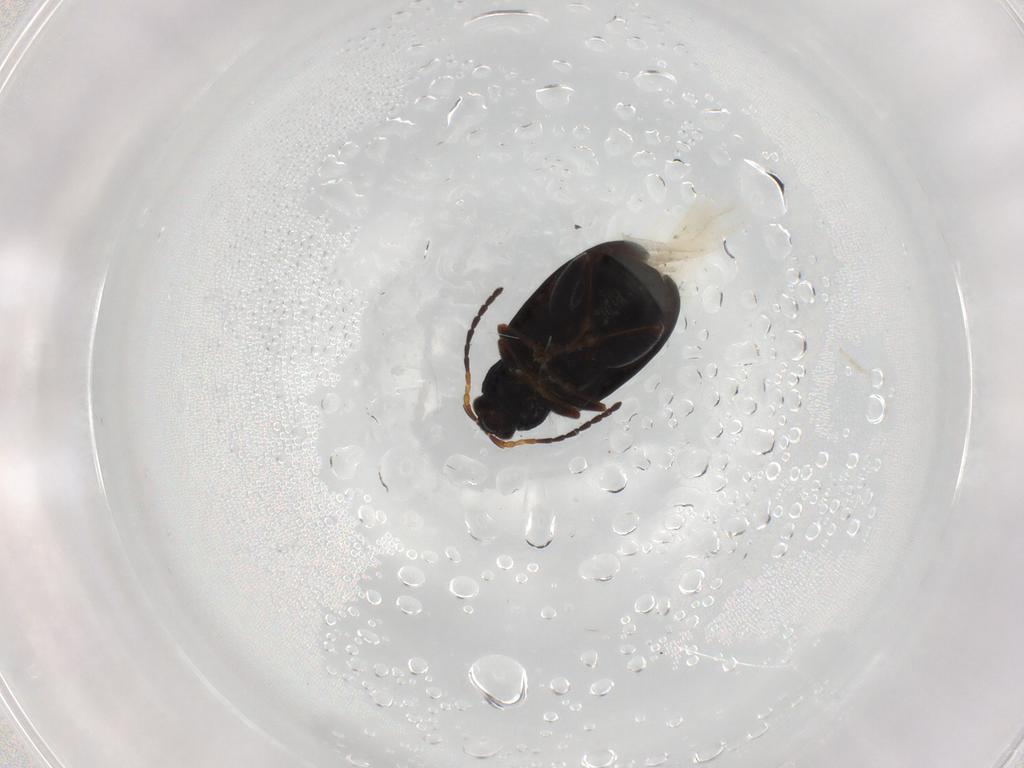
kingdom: Animalia
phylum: Arthropoda
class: Insecta
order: Coleoptera
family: Chrysomelidae
